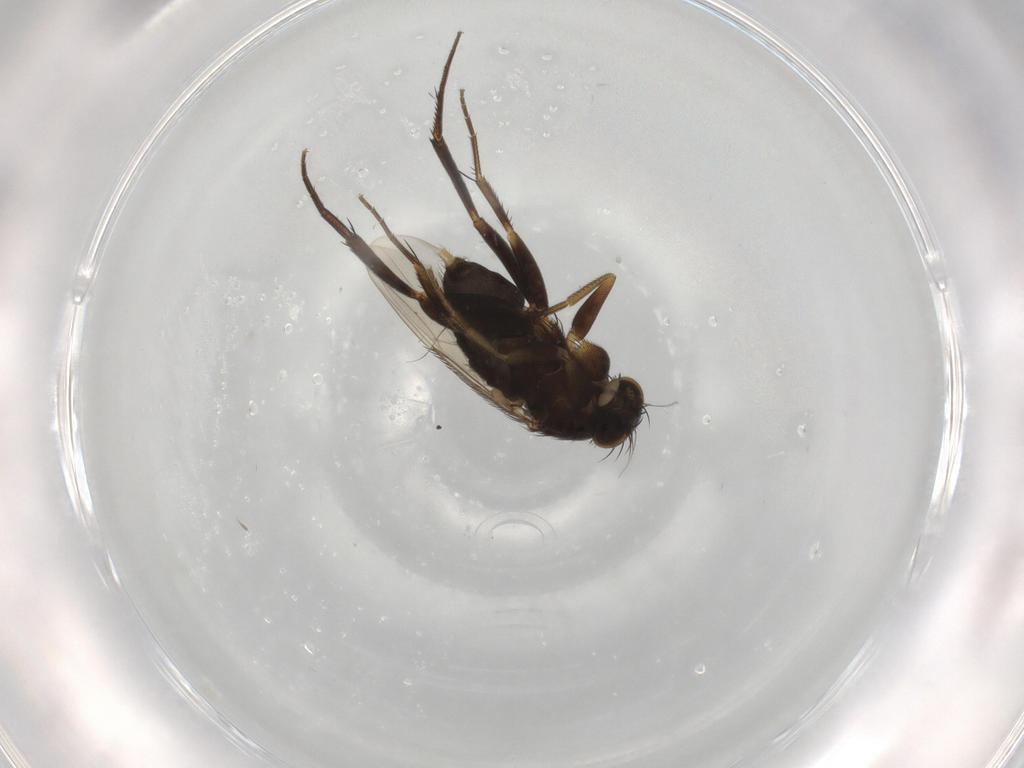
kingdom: Animalia
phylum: Arthropoda
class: Insecta
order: Diptera
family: Phoridae
